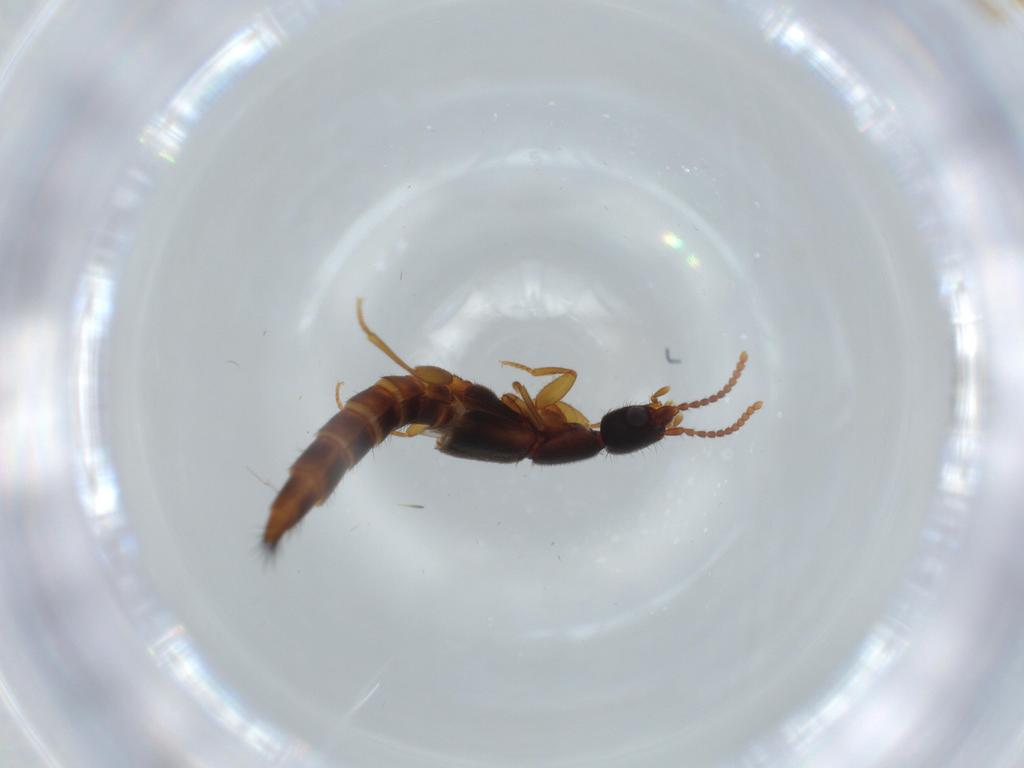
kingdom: Animalia
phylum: Arthropoda
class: Insecta
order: Coleoptera
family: Staphylinidae
